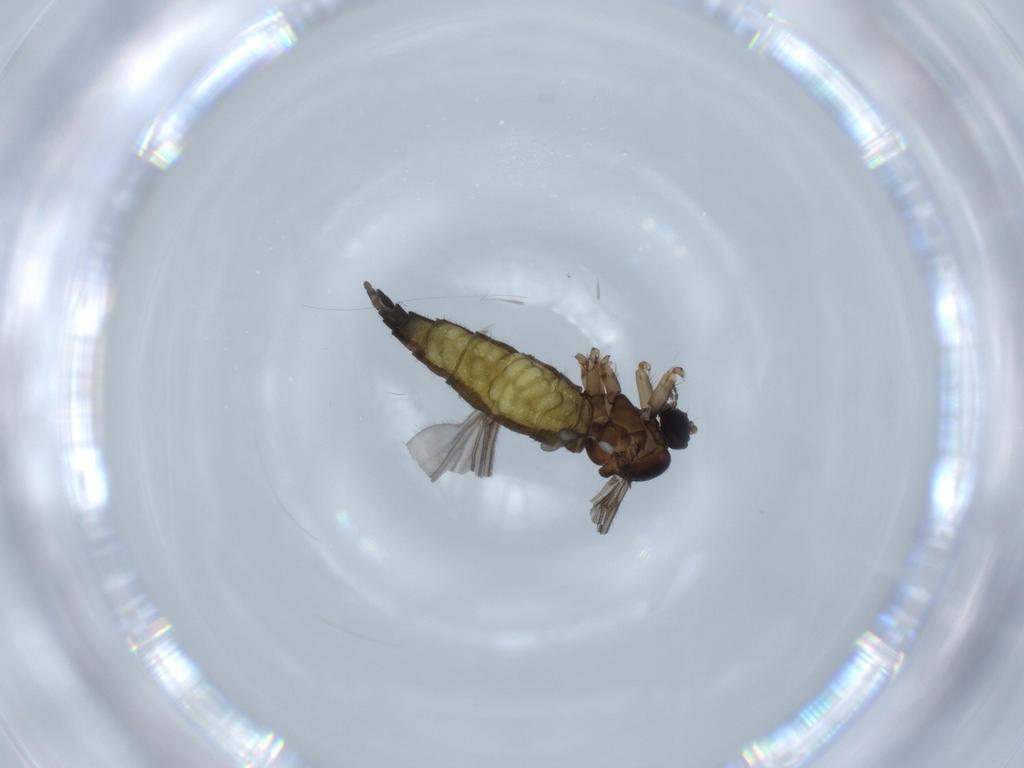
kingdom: Animalia
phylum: Arthropoda
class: Insecta
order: Diptera
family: Sciaridae
